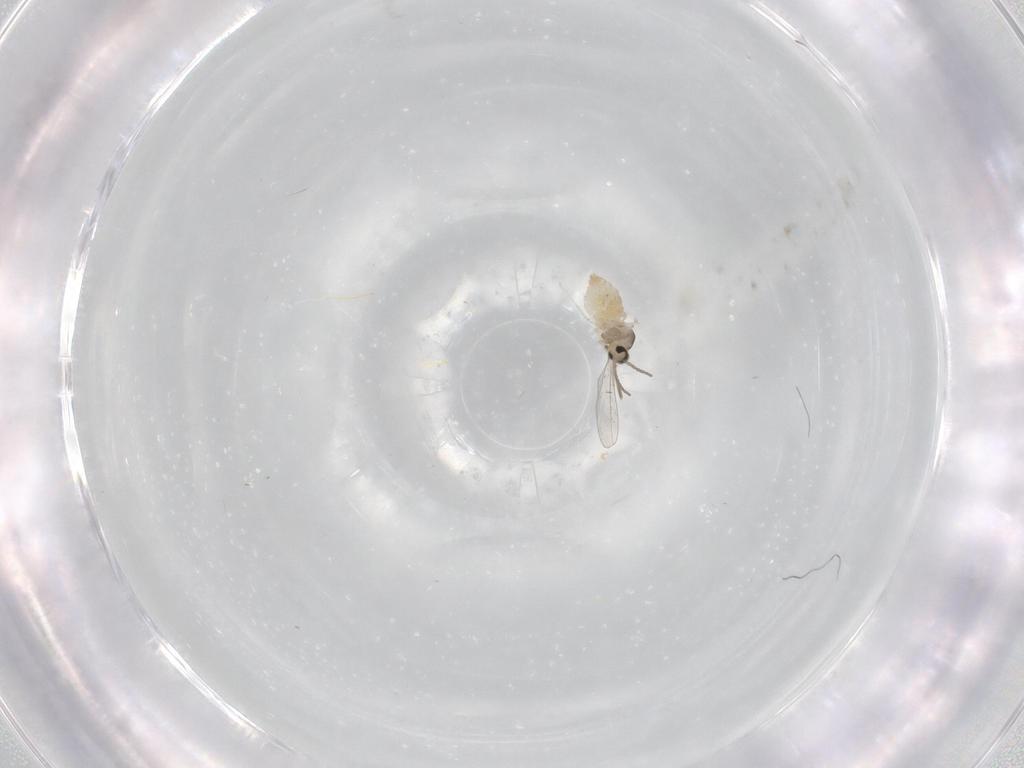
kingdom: Animalia
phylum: Arthropoda
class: Insecta
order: Diptera
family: Cecidomyiidae
